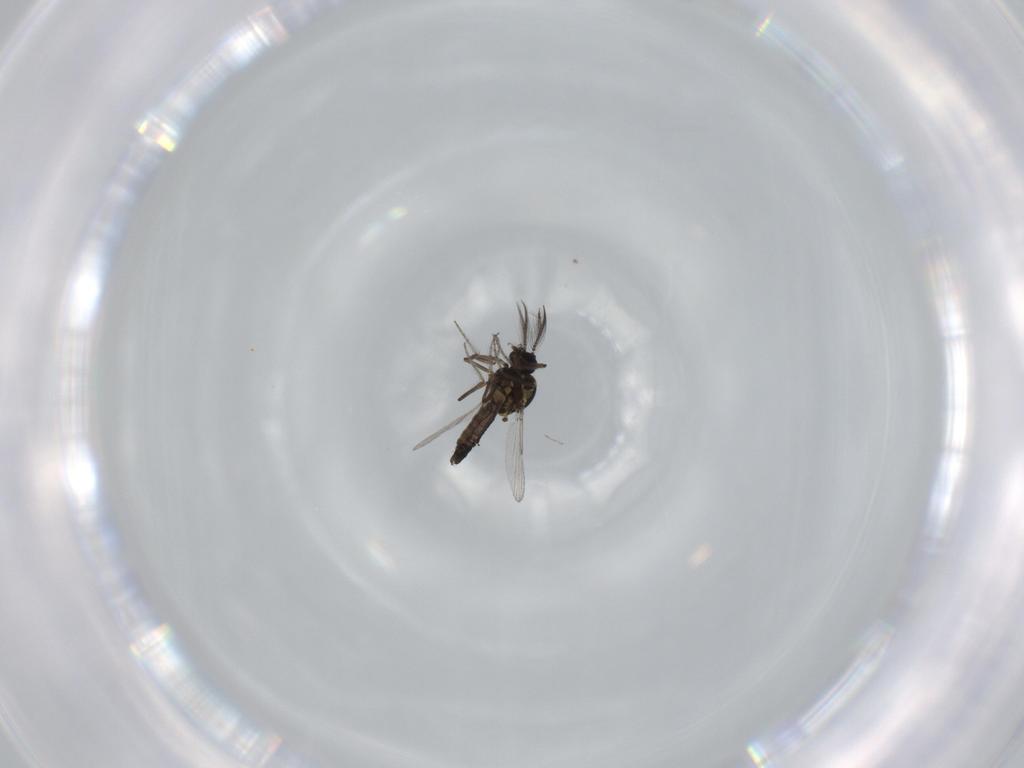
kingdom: Animalia
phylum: Arthropoda
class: Insecta
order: Diptera
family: Ceratopogonidae
